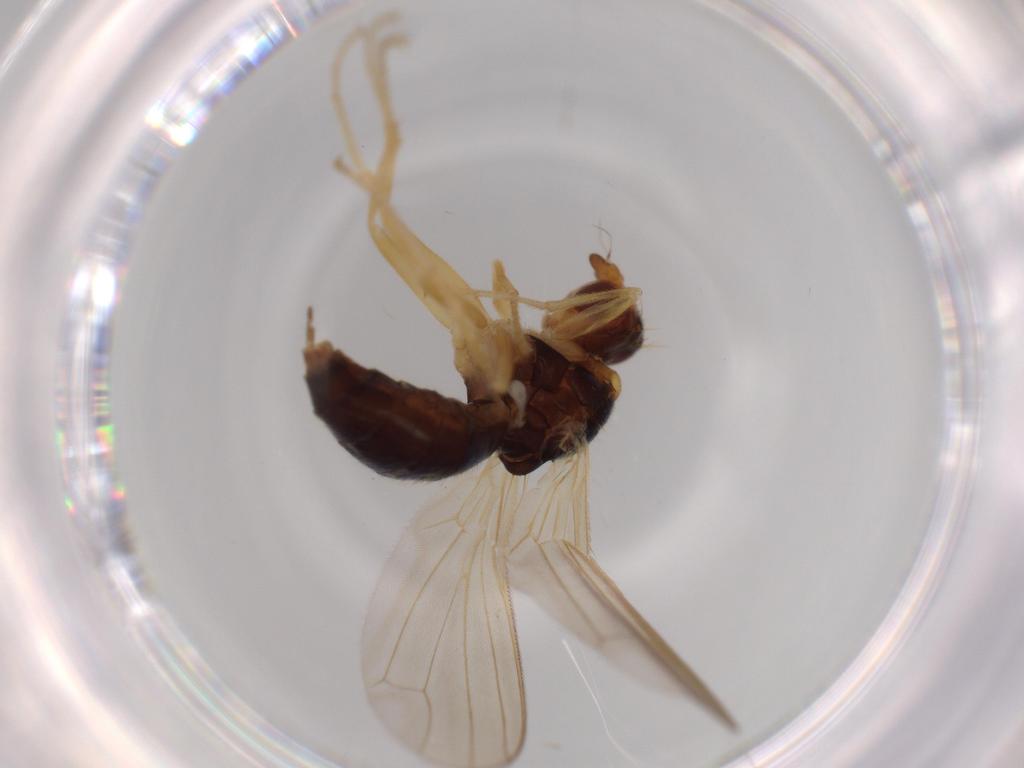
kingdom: Animalia
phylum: Arthropoda
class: Insecta
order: Diptera
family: Psilidae
